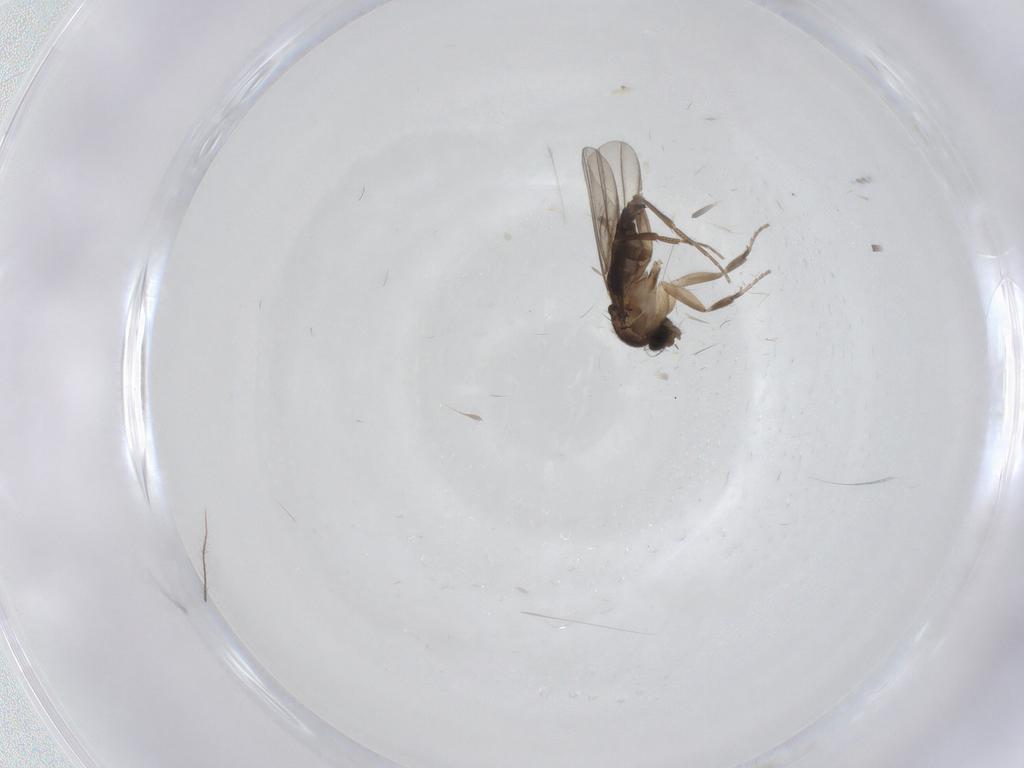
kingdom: Animalia
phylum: Arthropoda
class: Insecta
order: Diptera
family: Phoridae
